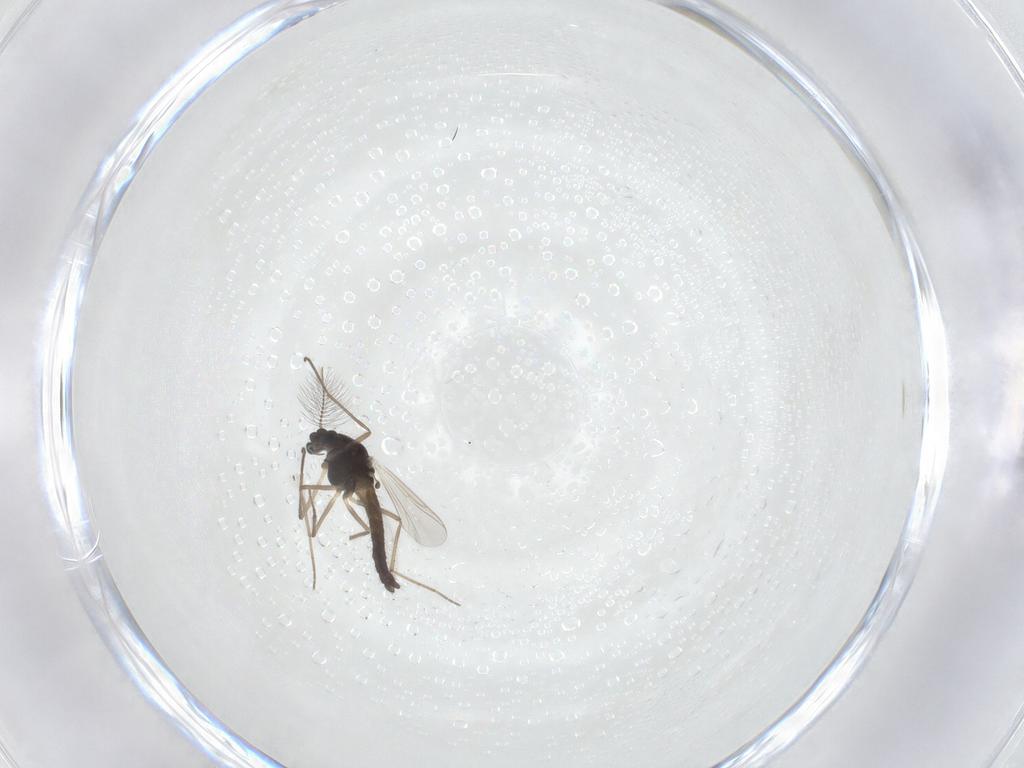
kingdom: Animalia
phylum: Arthropoda
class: Insecta
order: Diptera
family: Chironomidae
